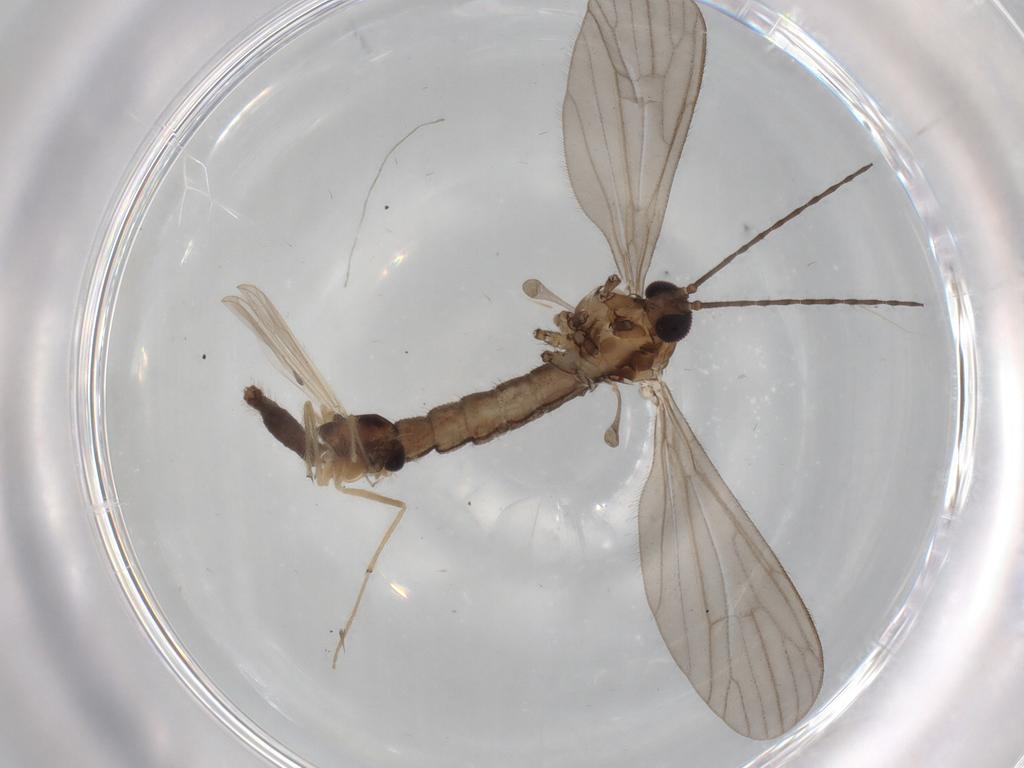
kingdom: Animalia
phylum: Arthropoda
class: Insecta
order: Diptera
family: Chironomidae
